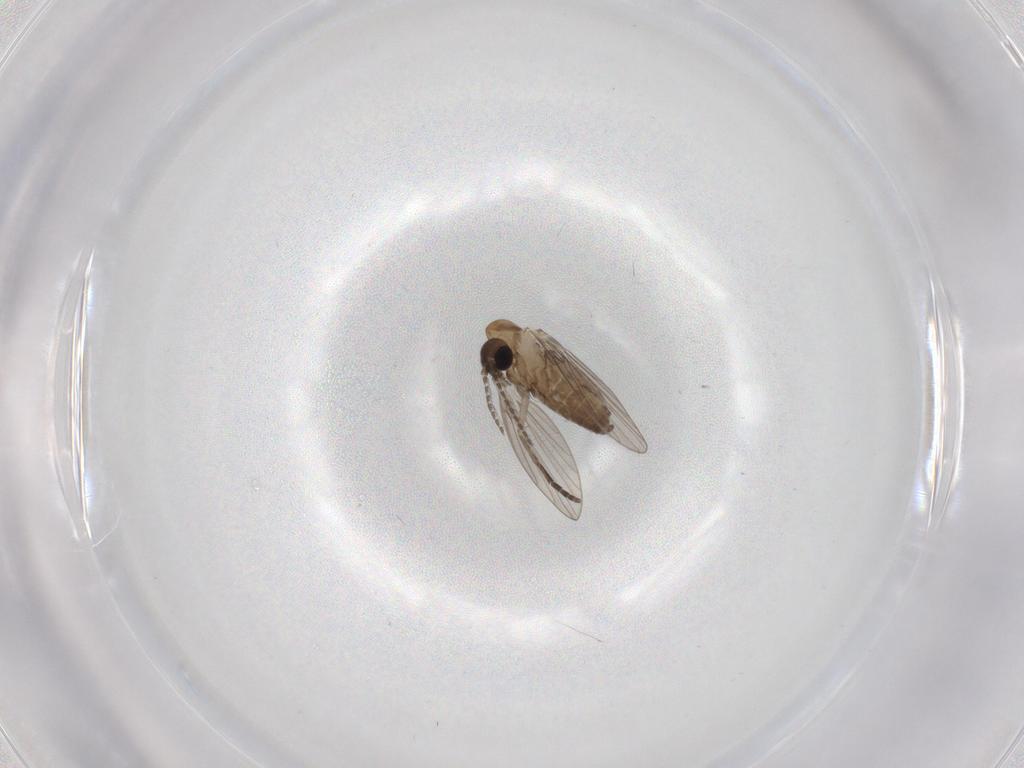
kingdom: Animalia
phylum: Arthropoda
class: Insecta
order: Diptera
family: Psychodidae
